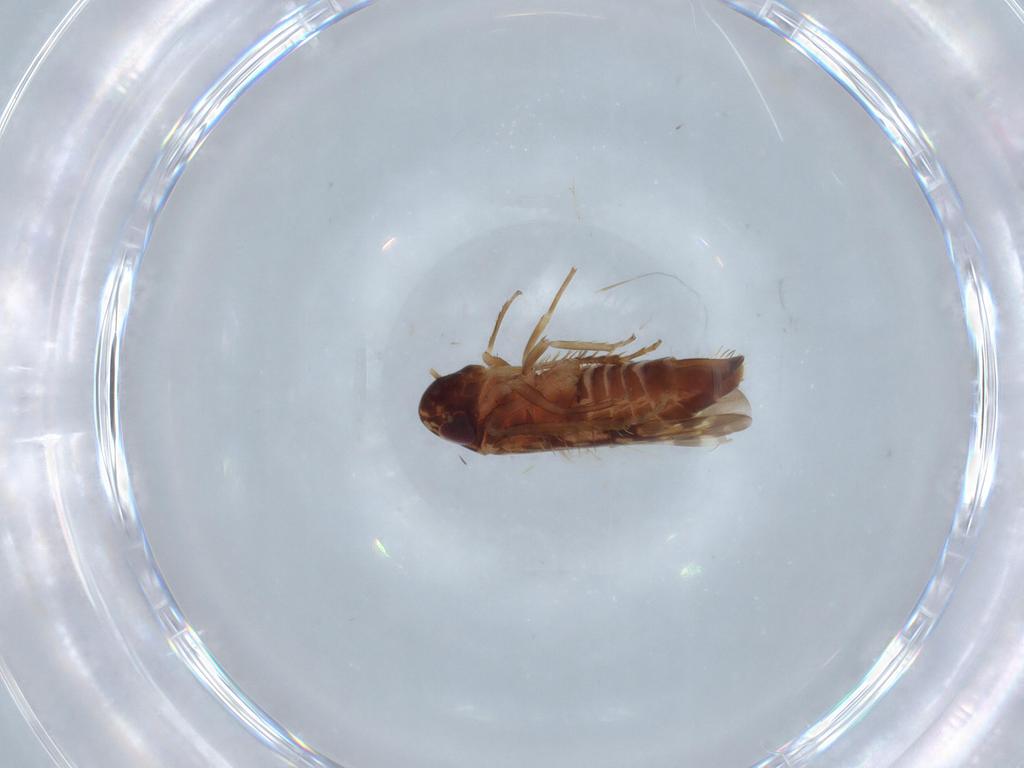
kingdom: Animalia
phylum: Arthropoda
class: Insecta
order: Hemiptera
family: Cicadellidae
